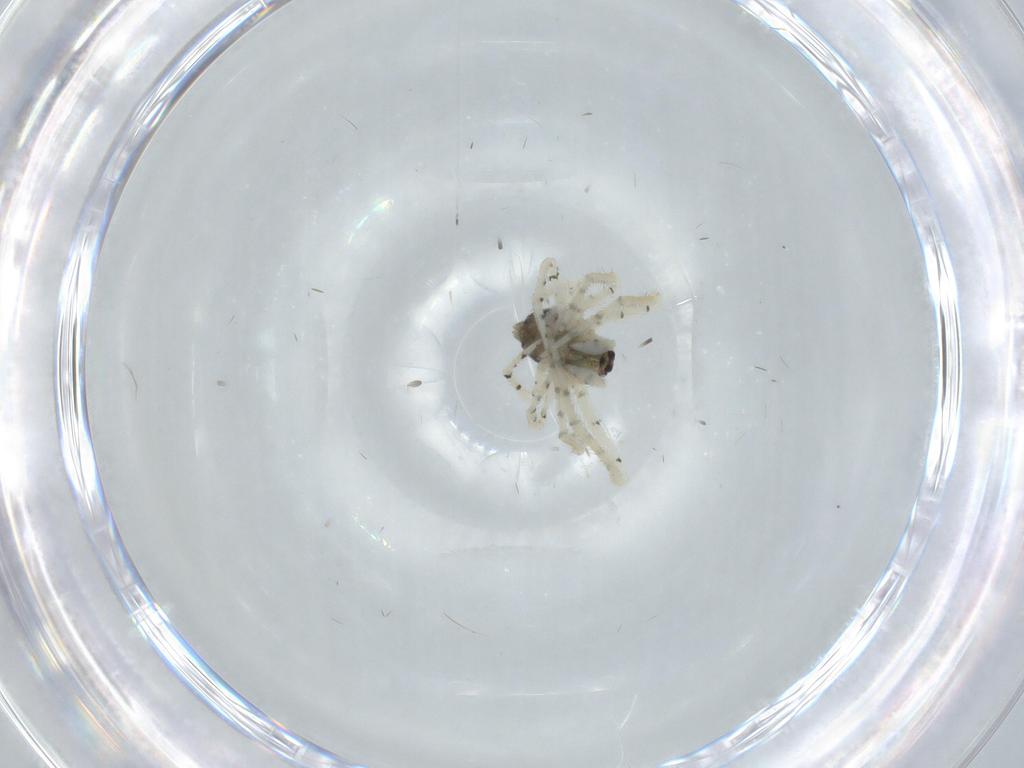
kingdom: Animalia
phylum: Arthropoda
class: Arachnida
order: Araneae
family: Theridiidae
